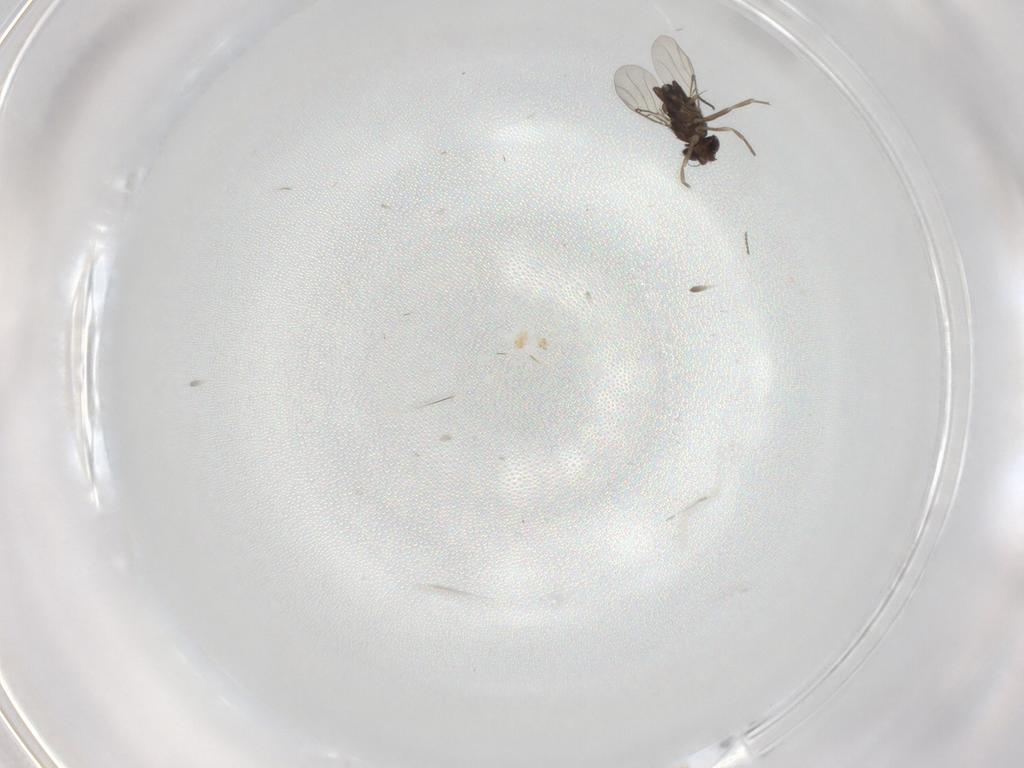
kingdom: Animalia
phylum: Arthropoda
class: Insecta
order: Diptera
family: Phoridae
